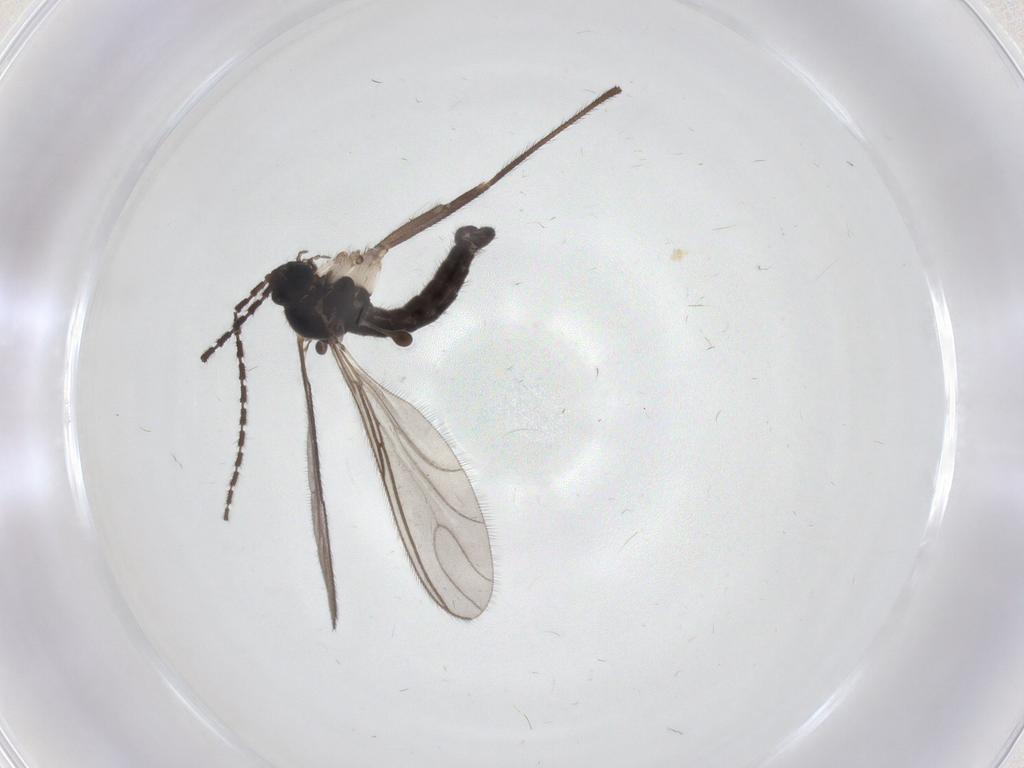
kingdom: Animalia
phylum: Arthropoda
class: Insecta
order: Diptera
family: Sciaridae
